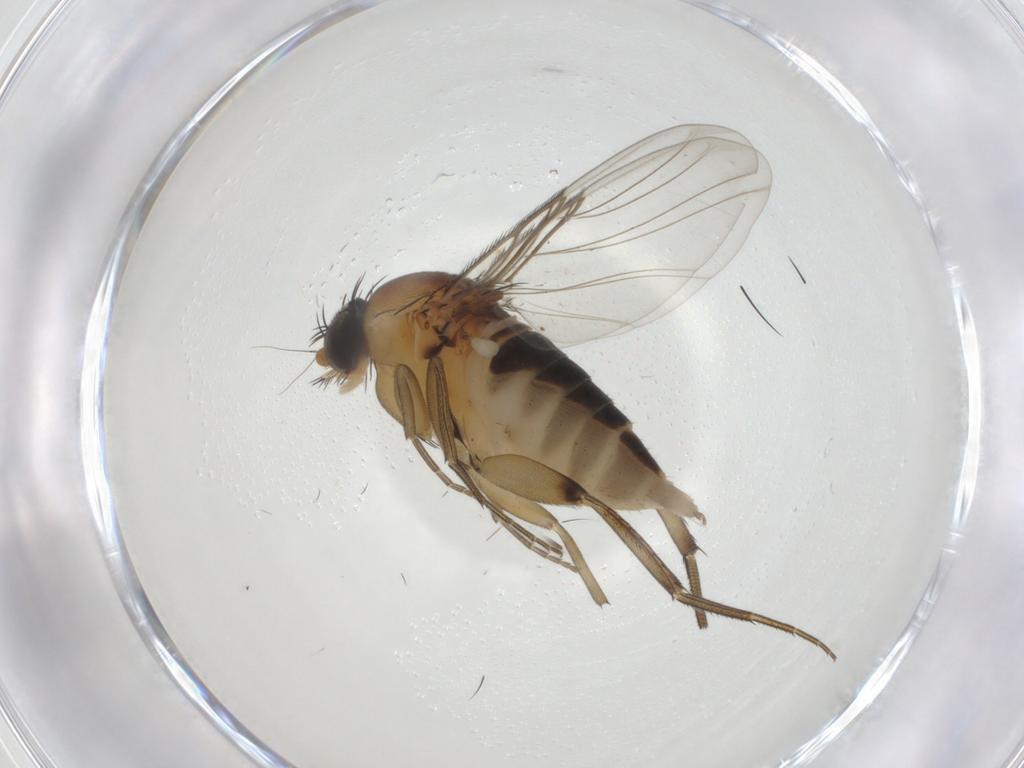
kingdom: Animalia
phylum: Arthropoda
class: Insecta
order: Diptera
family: Phoridae
